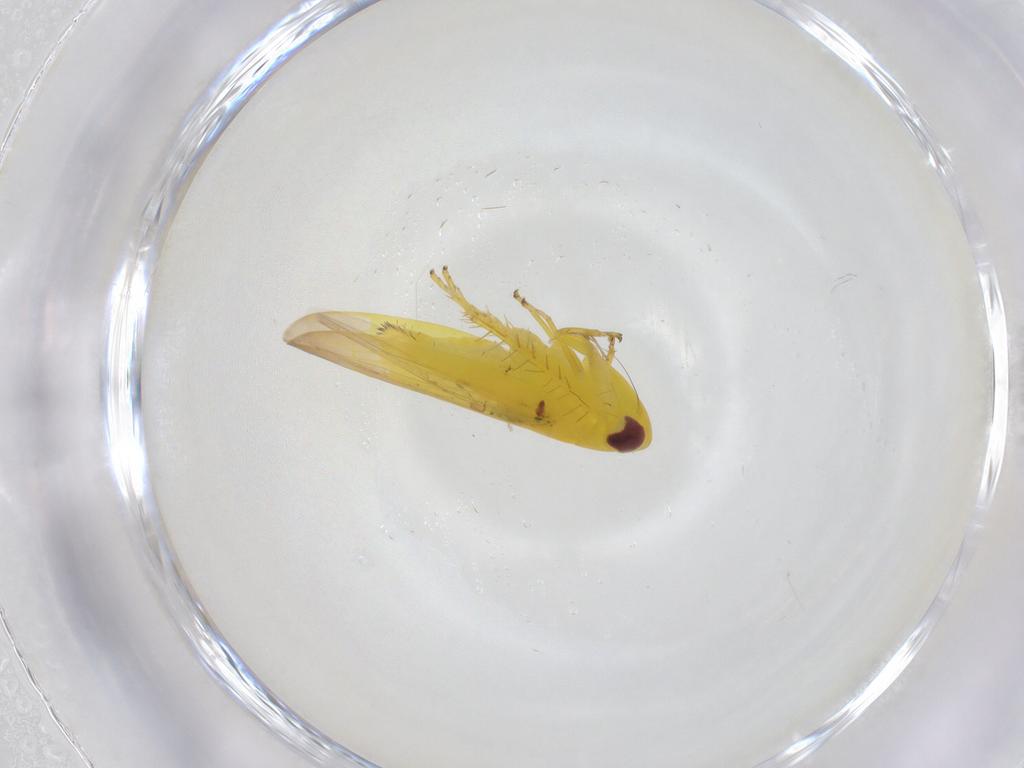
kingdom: Animalia
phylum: Arthropoda
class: Insecta
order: Hemiptera
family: Cicadellidae
